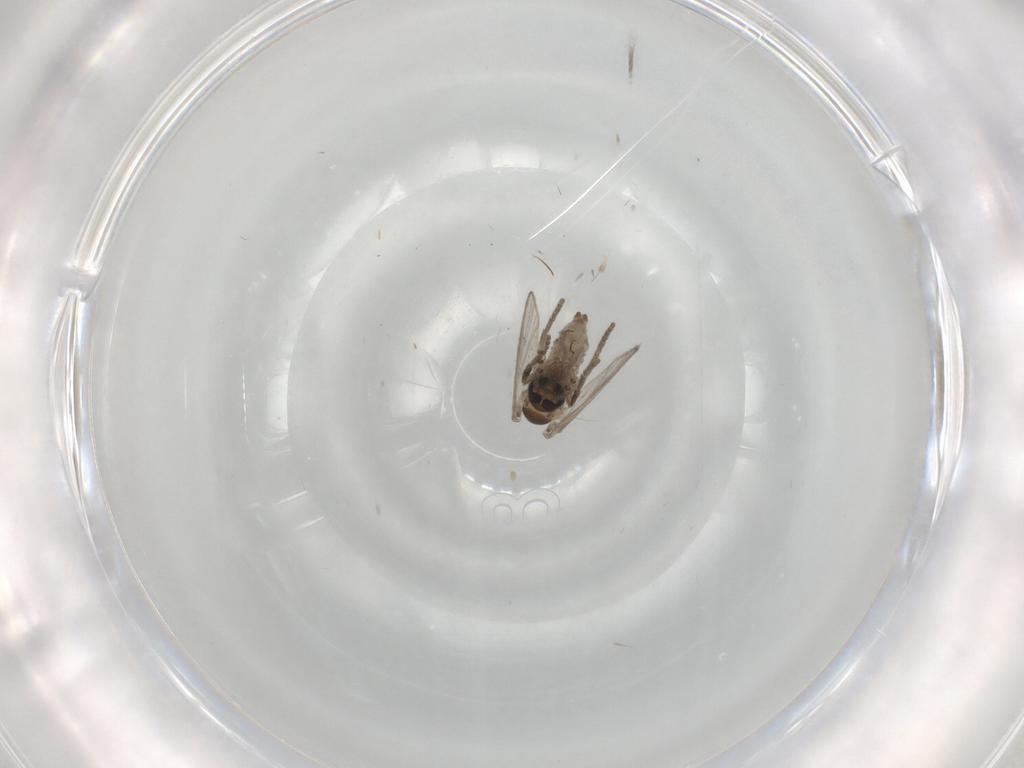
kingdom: Animalia
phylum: Arthropoda
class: Insecta
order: Diptera
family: Psychodidae
